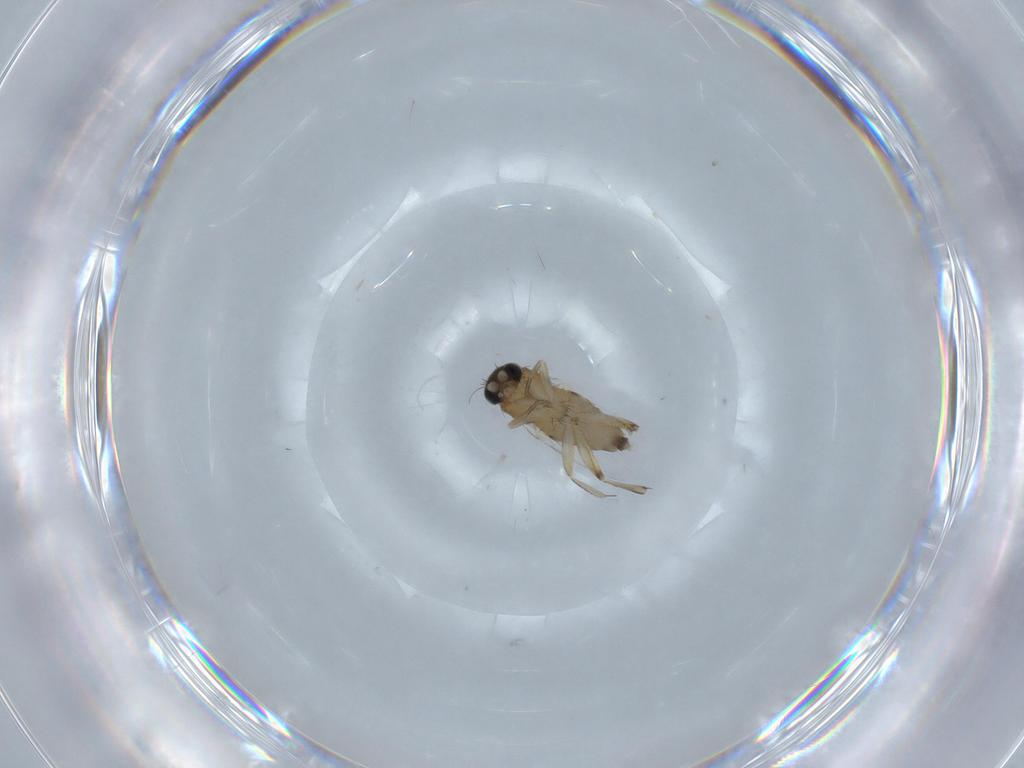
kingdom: Animalia
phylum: Arthropoda
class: Insecta
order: Diptera
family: Phoridae
